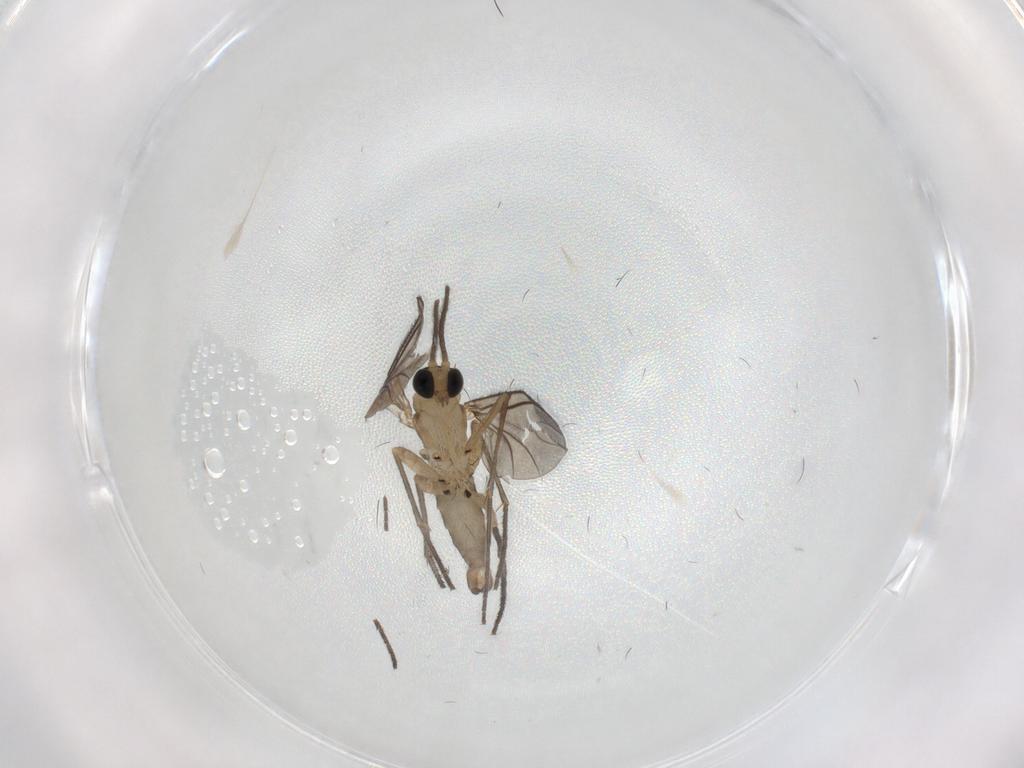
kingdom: Animalia
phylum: Arthropoda
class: Insecta
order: Diptera
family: Sciaridae
